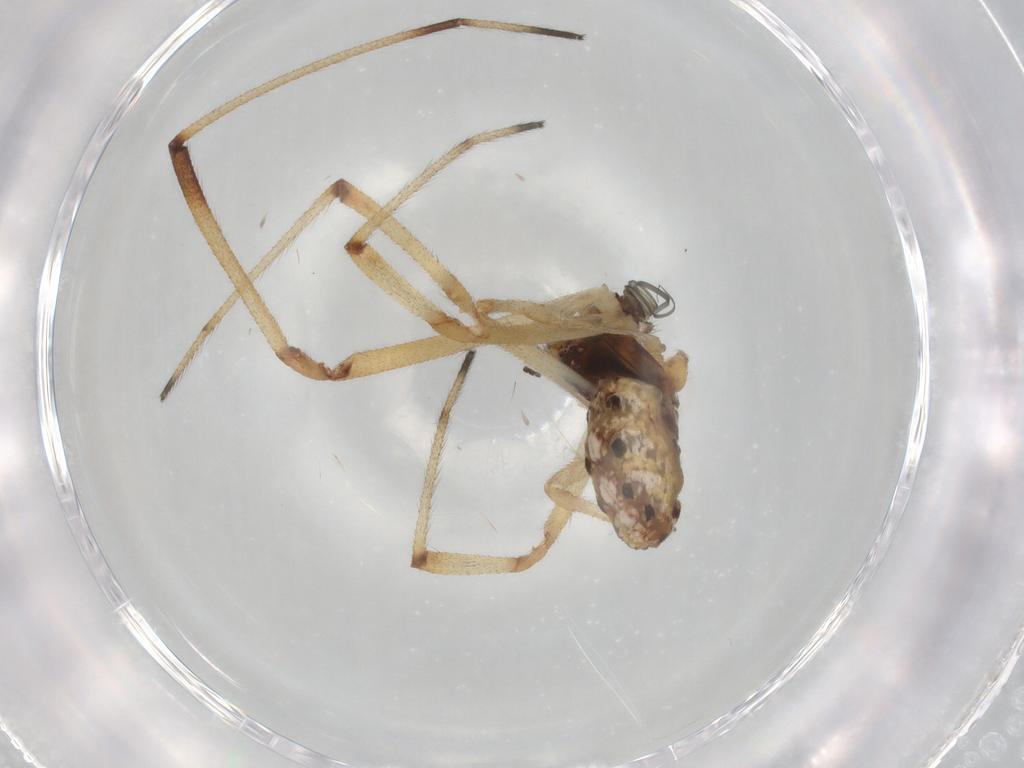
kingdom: Animalia
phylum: Arthropoda
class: Arachnida
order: Araneae
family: Theridiidae
